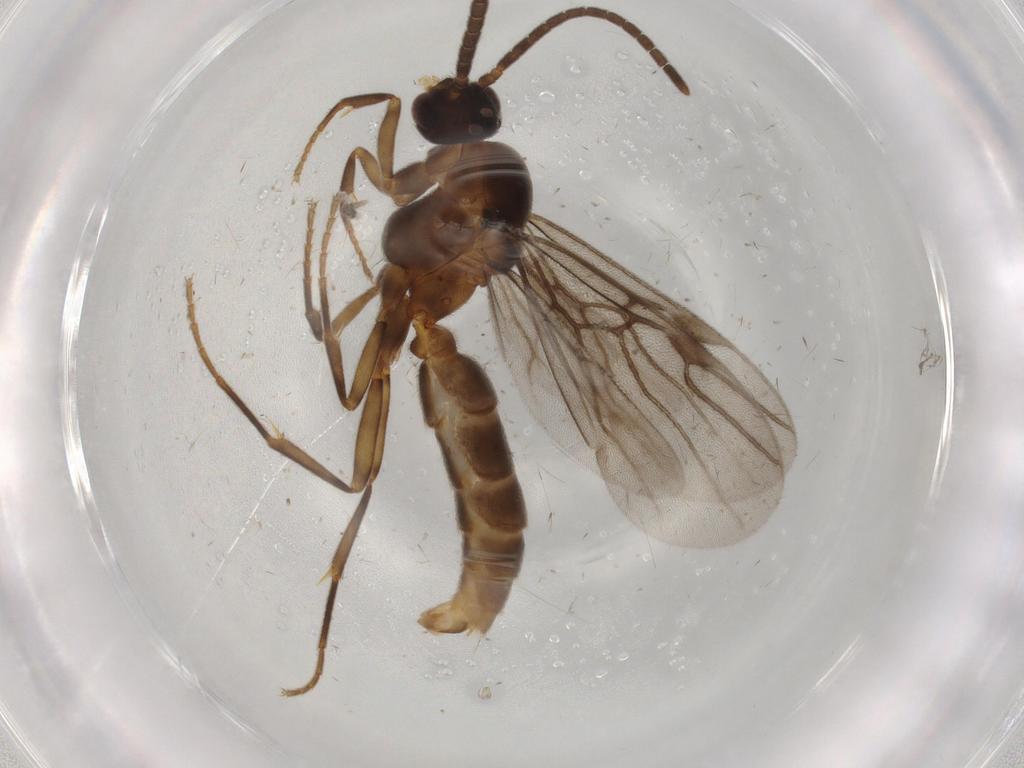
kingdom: Animalia
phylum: Arthropoda
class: Insecta
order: Hymenoptera
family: Formicidae
